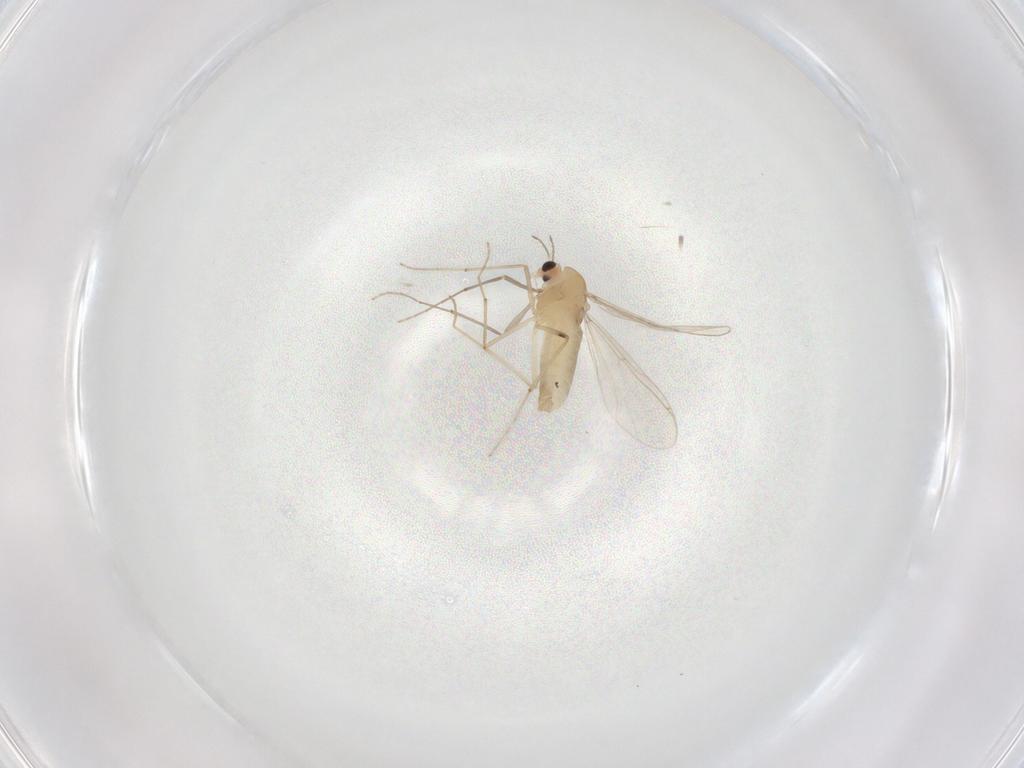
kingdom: Animalia
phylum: Arthropoda
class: Insecta
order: Diptera
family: Chironomidae
